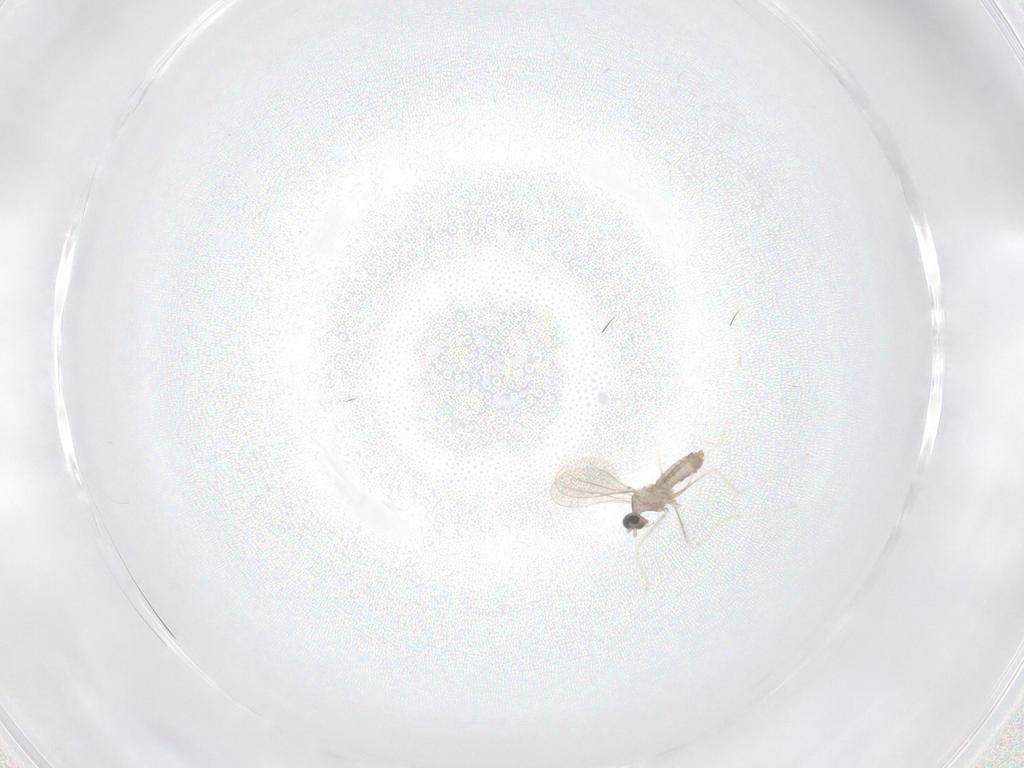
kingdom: Animalia
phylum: Arthropoda
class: Insecta
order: Diptera
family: Cecidomyiidae
